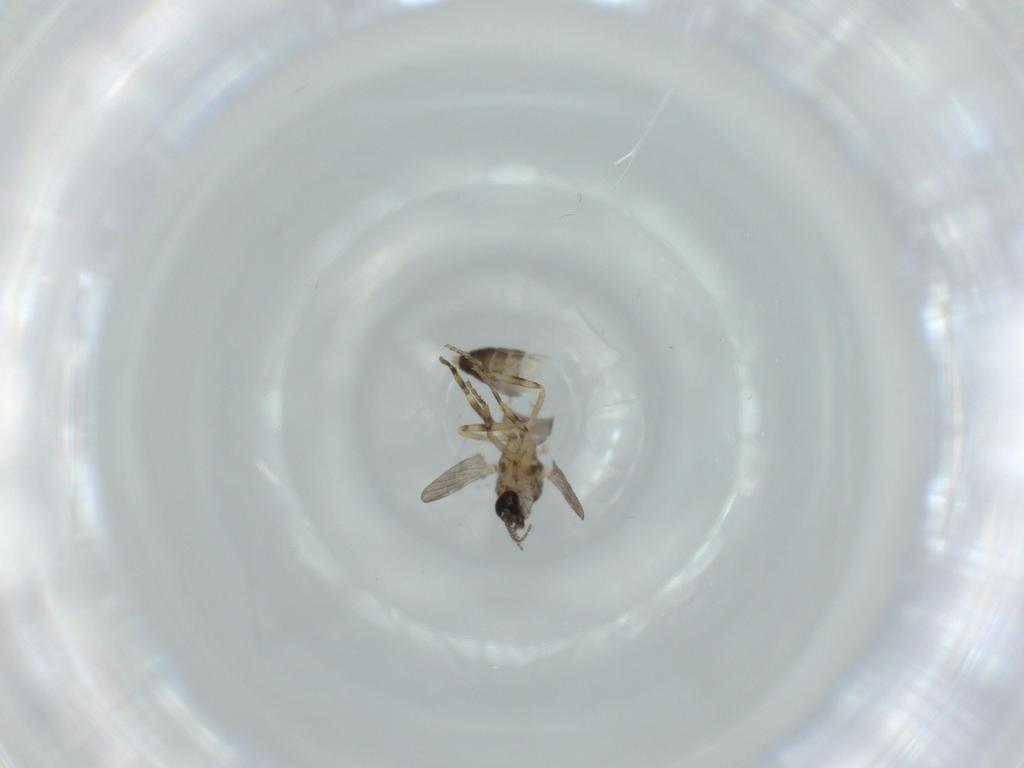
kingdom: Animalia
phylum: Arthropoda
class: Insecta
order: Diptera
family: Ceratopogonidae
